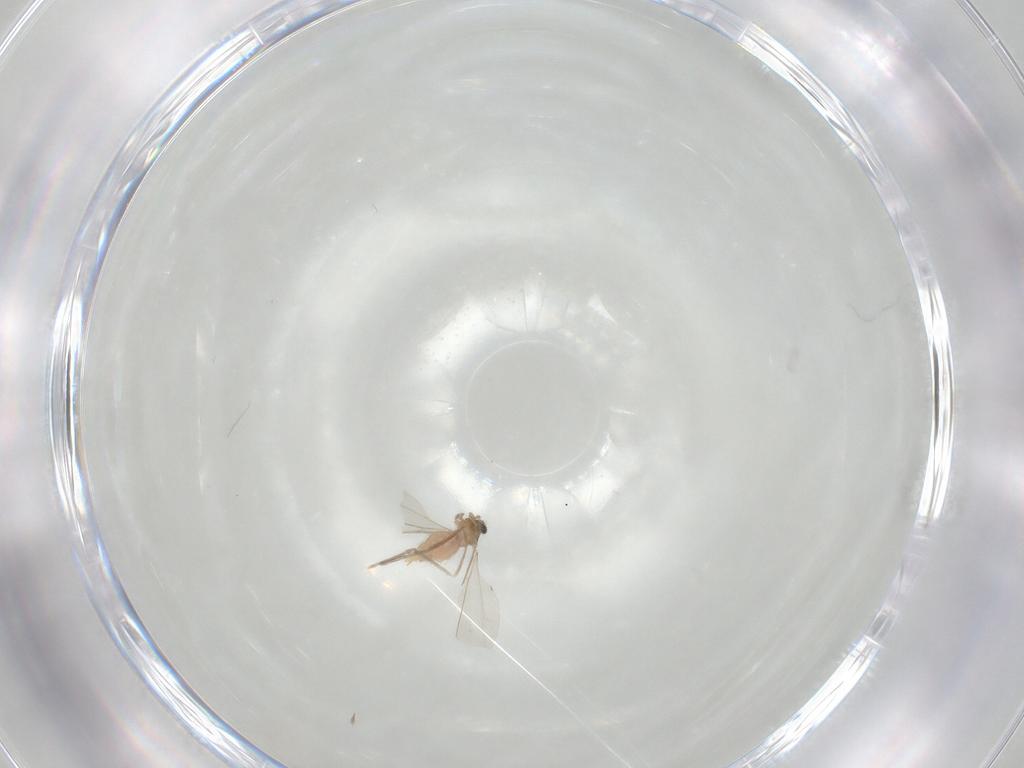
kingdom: Animalia
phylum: Arthropoda
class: Insecta
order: Diptera
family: Cecidomyiidae
